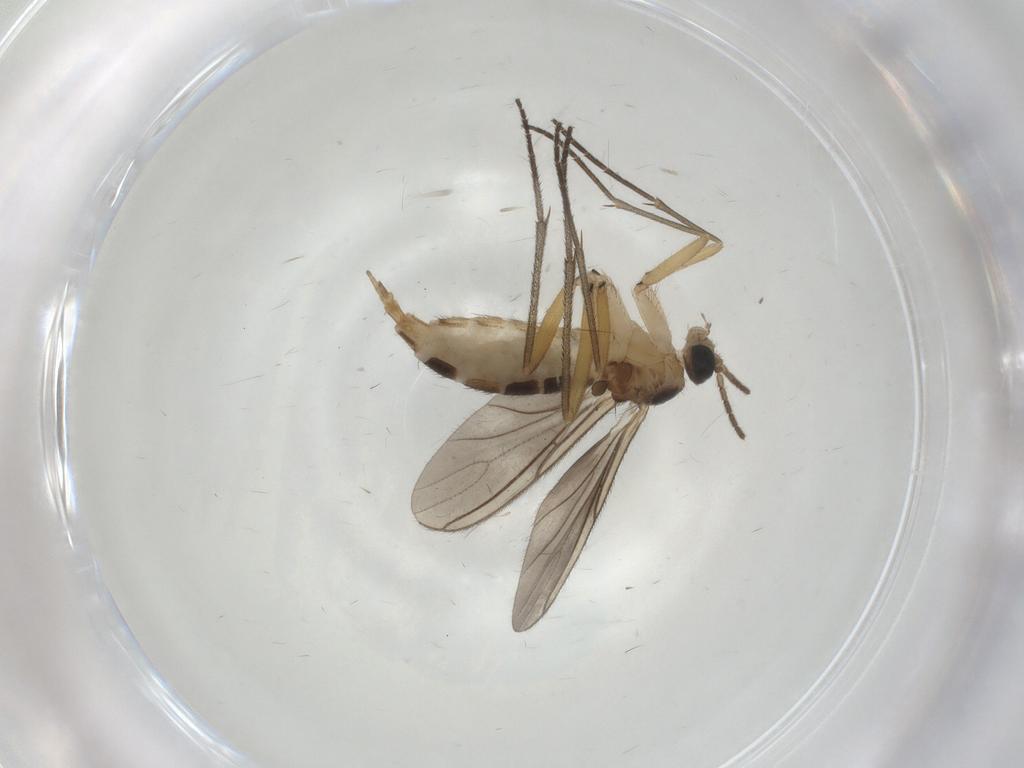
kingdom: Animalia
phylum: Arthropoda
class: Insecta
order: Diptera
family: Sciaridae
